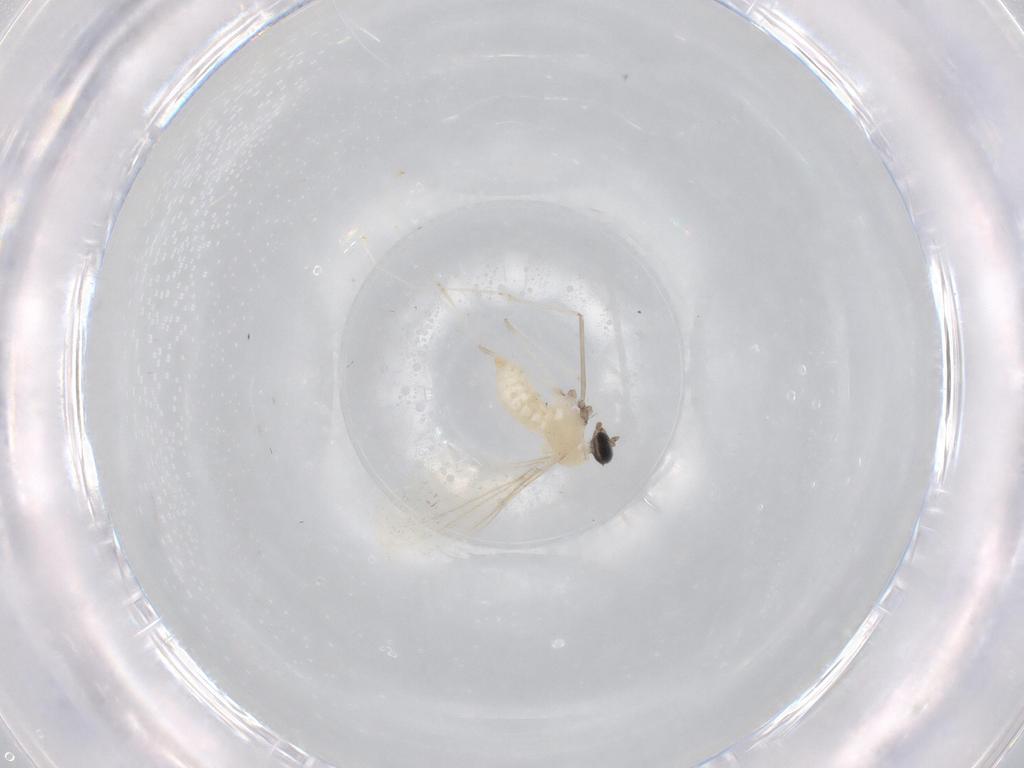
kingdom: Animalia
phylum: Arthropoda
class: Insecta
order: Diptera
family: Cecidomyiidae
